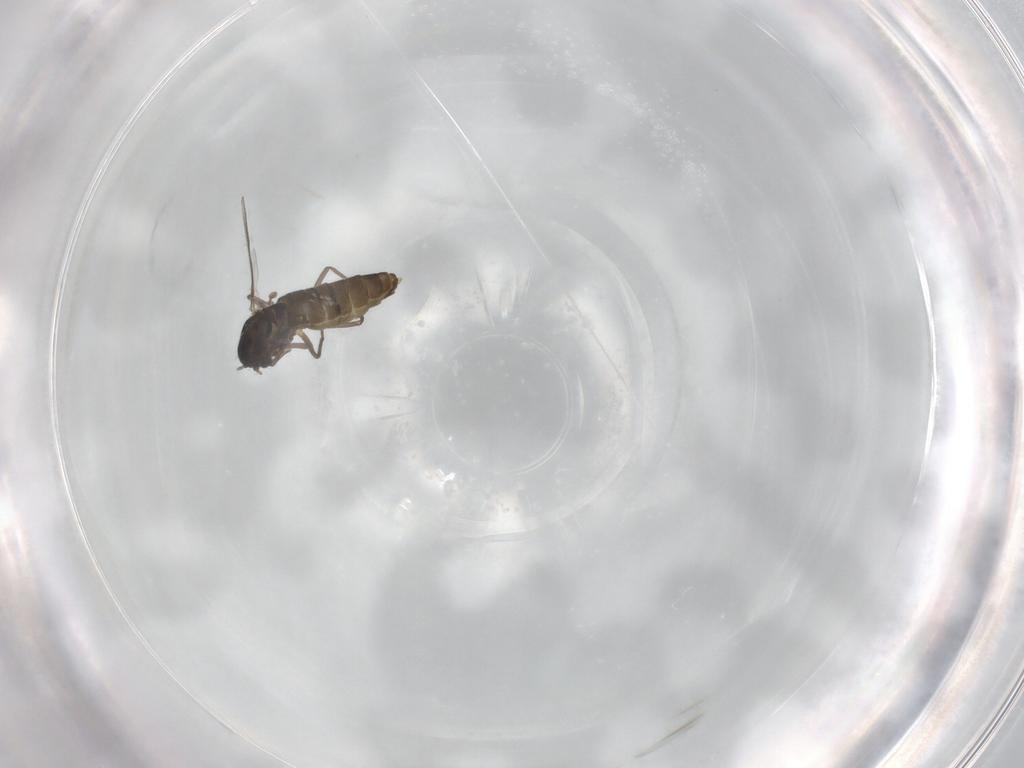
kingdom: Animalia
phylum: Arthropoda
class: Insecta
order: Diptera
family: Chironomidae
